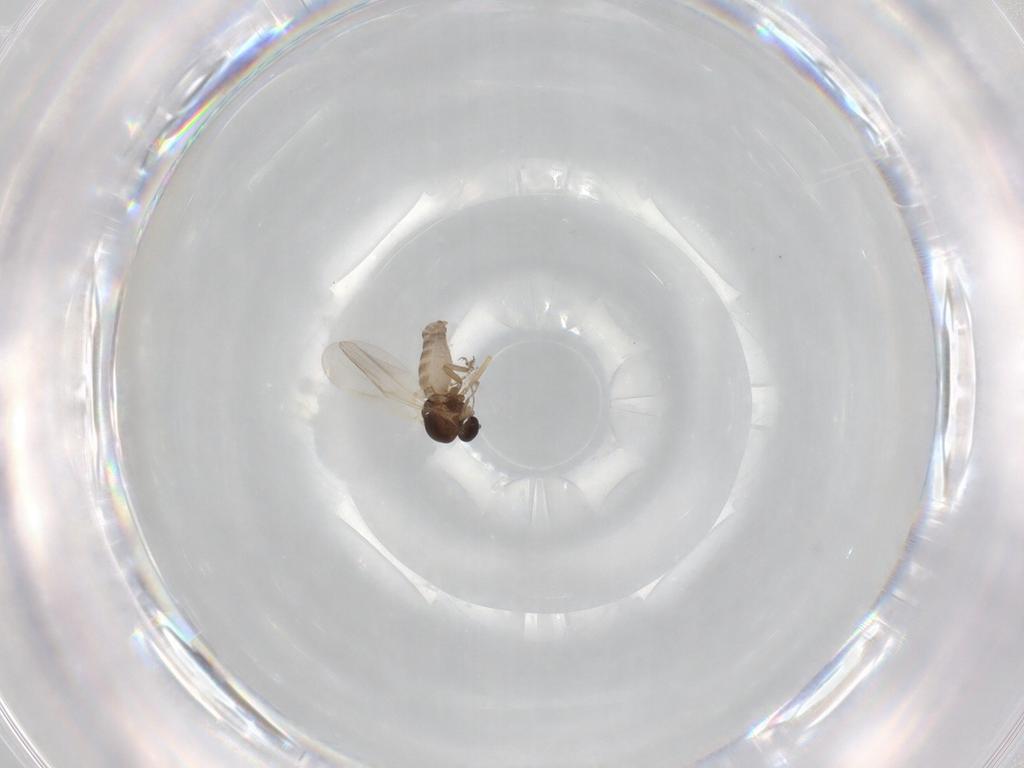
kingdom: Animalia
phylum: Arthropoda
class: Insecta
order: Diptera
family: Ceratopogonidae
